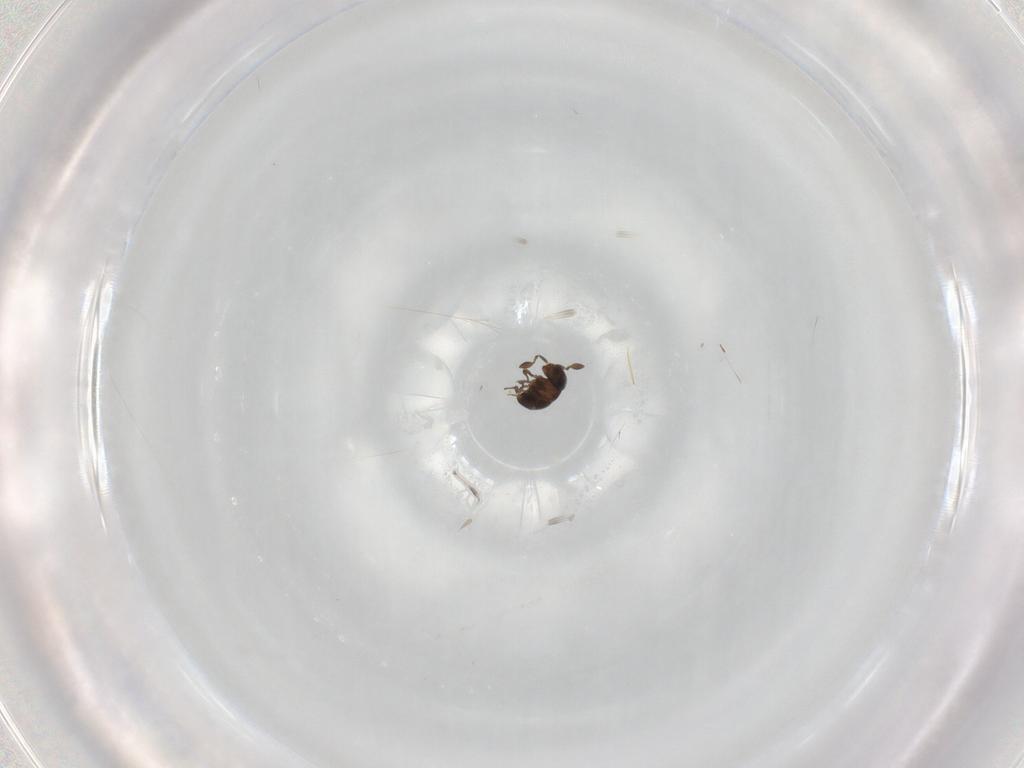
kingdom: Animalia
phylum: Arthropoda
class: Insecta
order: Hymenoptera
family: Scelionidae
